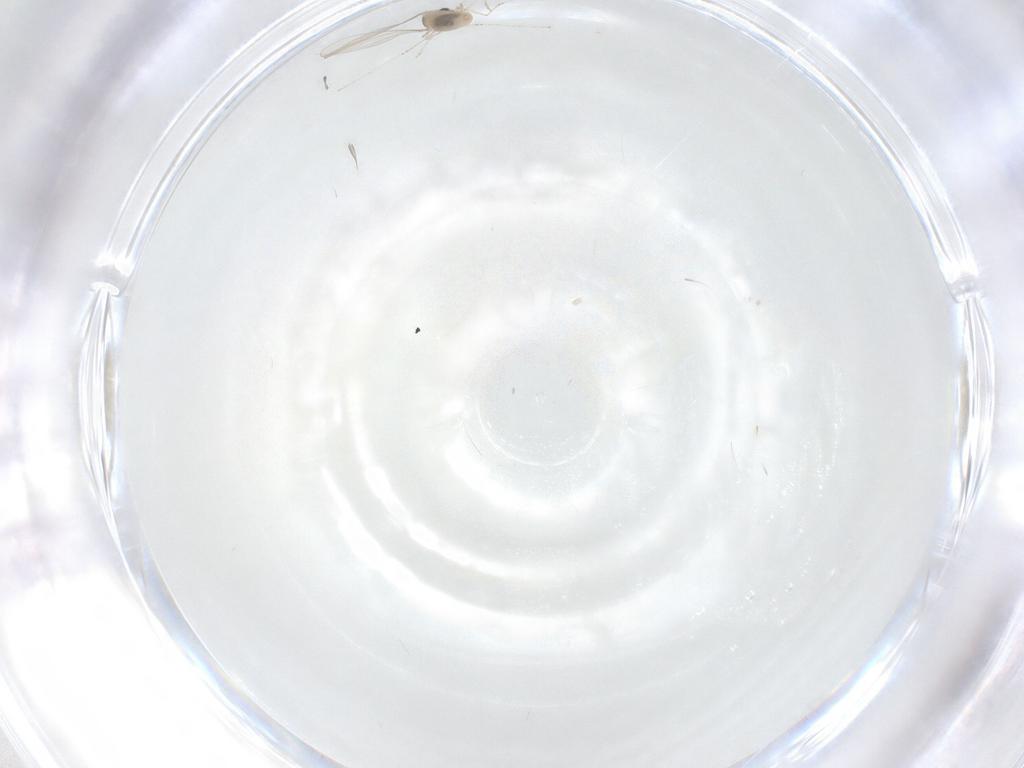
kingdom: Animalia
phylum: Arthropoda
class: Insecta
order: Diptera
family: Cecidomyiidae
